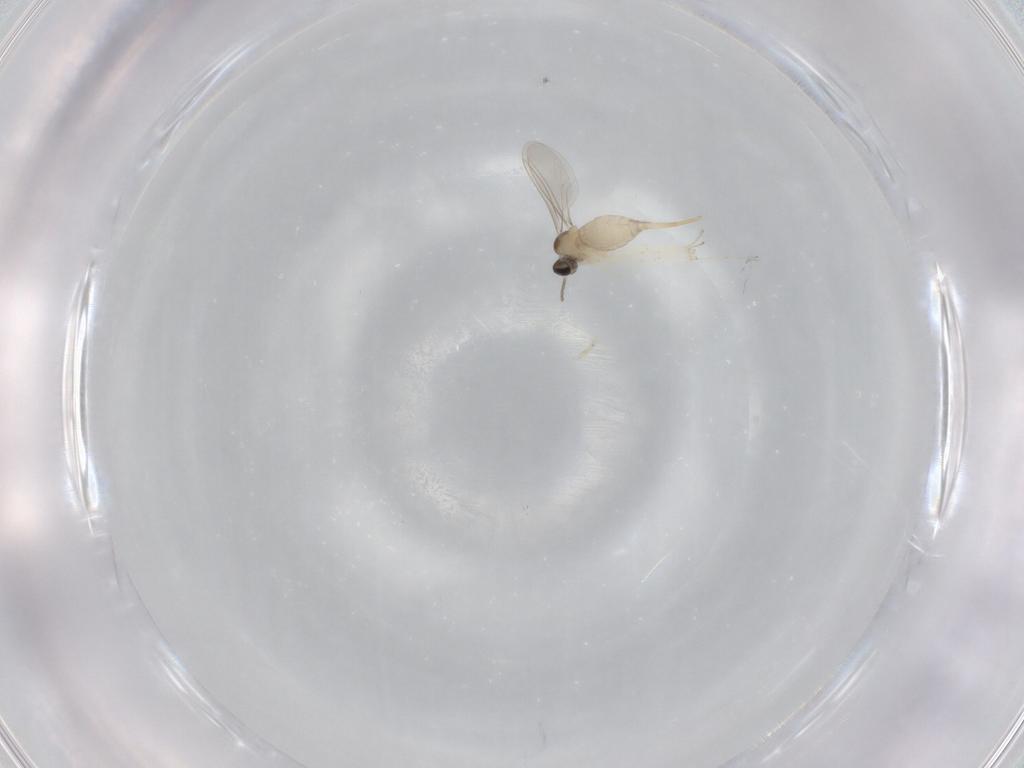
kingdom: Animalia
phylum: Arthropoda
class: Insecta
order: Diptera
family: Cecidomyiidae
